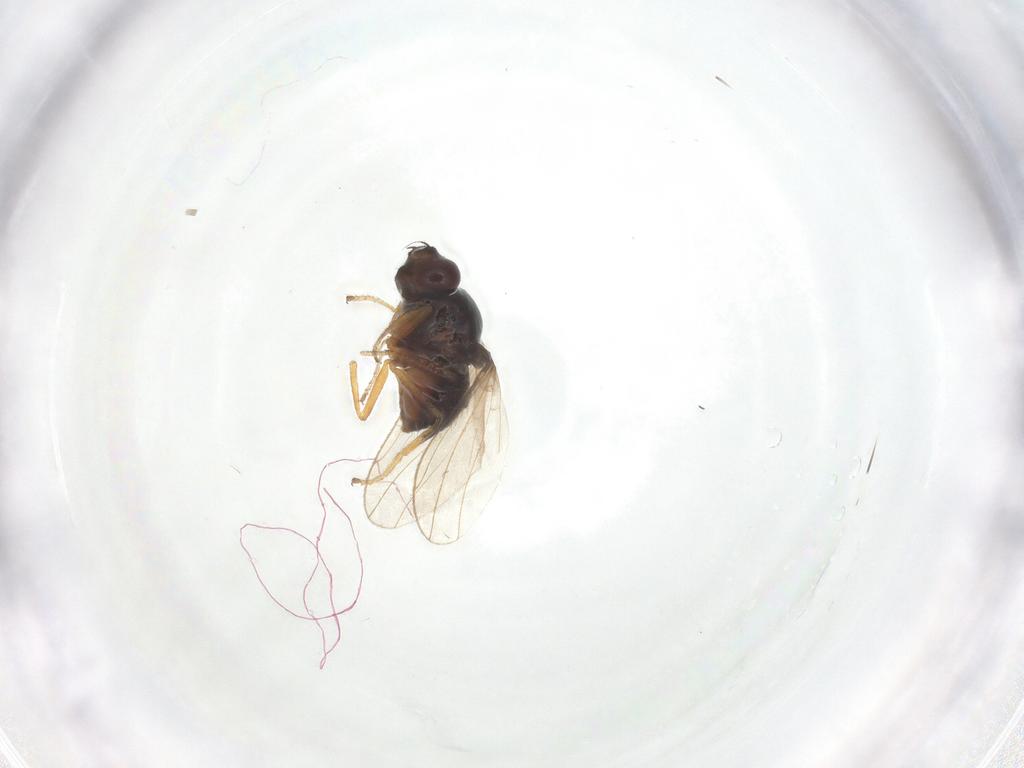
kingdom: Animalia
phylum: Arthropoda
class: Insecta
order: Diptera
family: Ephydridae
